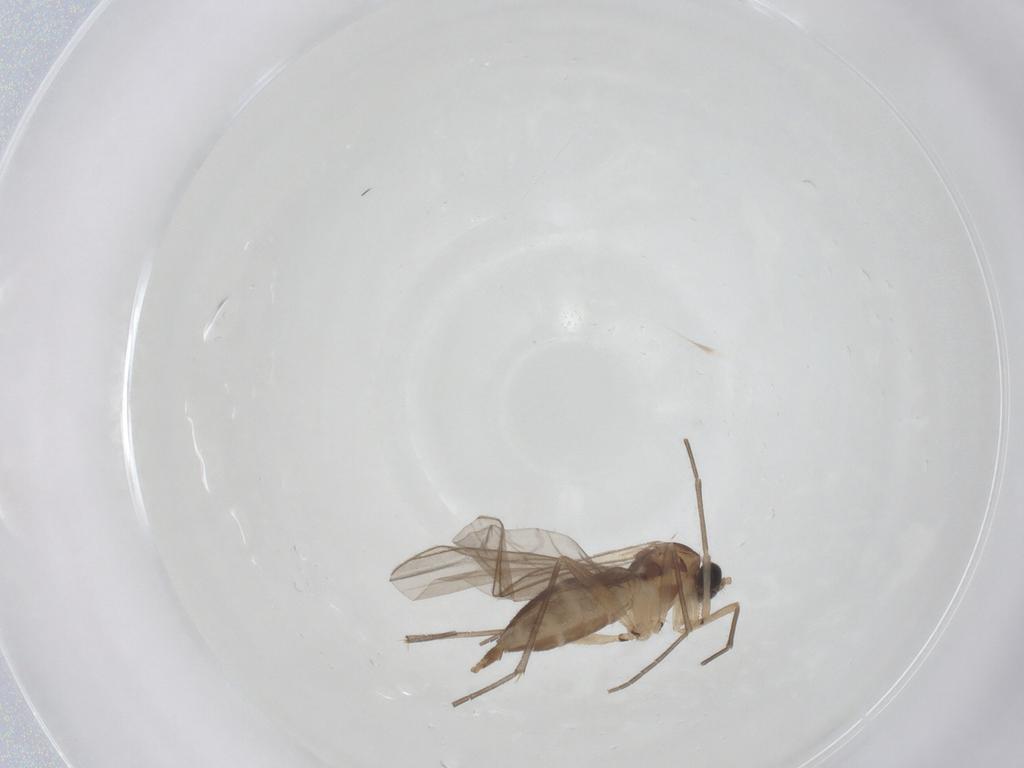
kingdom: Animalia
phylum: Arthropoda
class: Insecta
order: Diptera
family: Sciaridae
